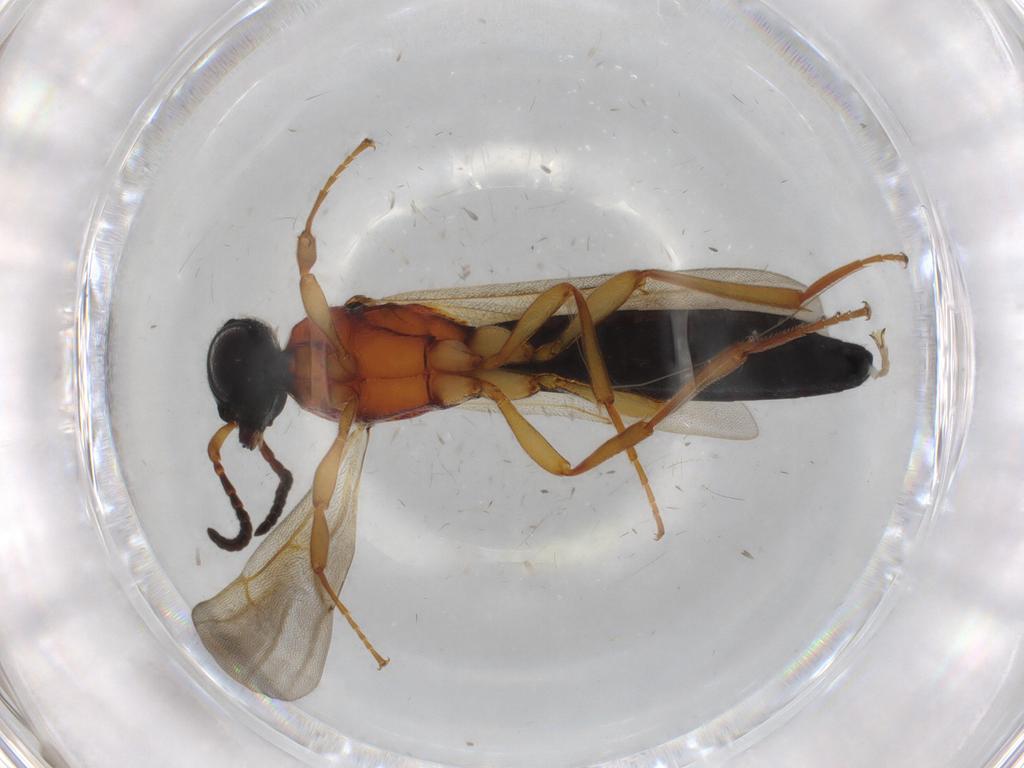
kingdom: Animalia
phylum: Arthropoda
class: Insecta
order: Hymenoptera
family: Scelionidae
